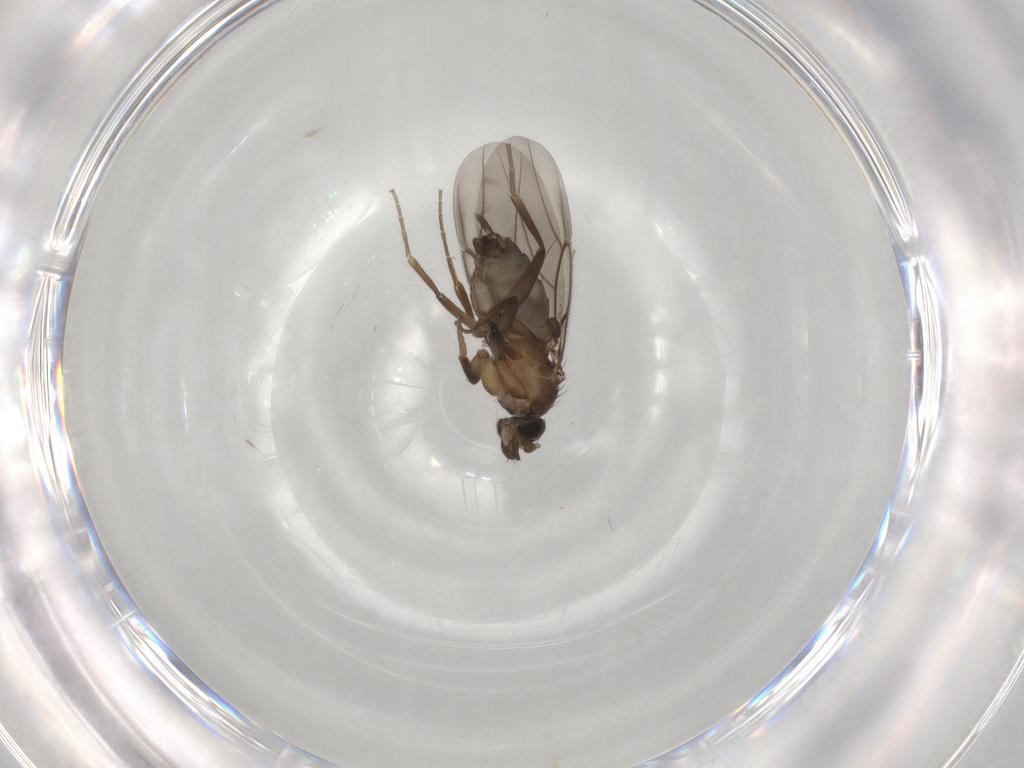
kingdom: Animalia
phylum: Arthropoda
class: Insecta
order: Diptera
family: Phoridae
